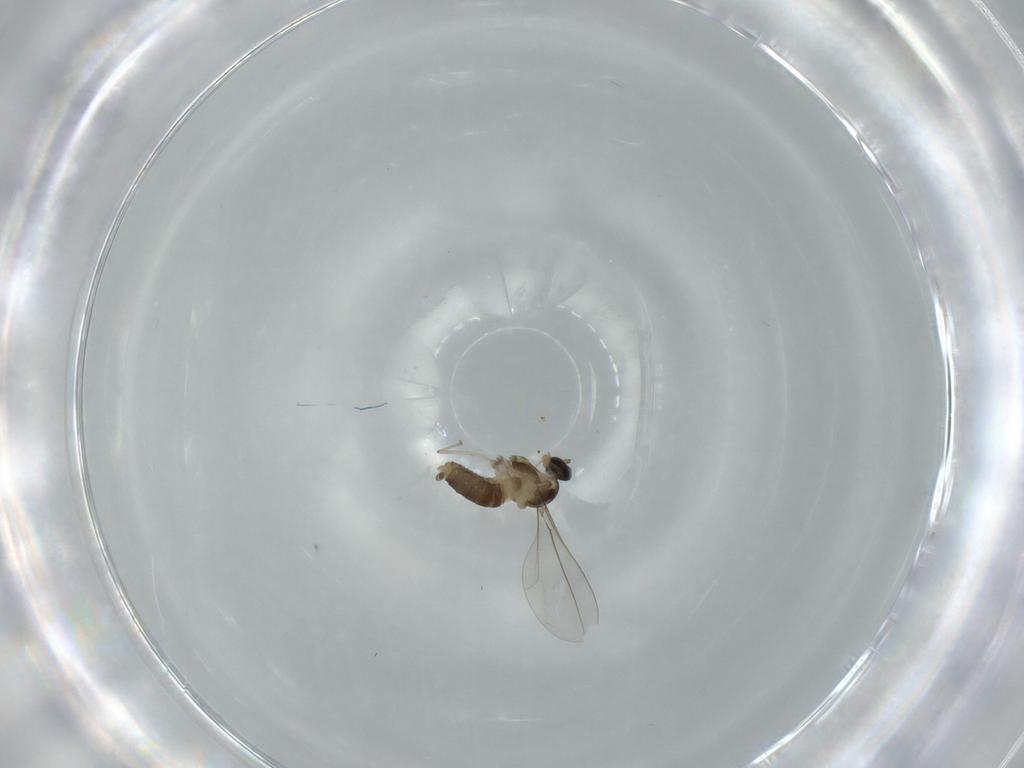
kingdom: Animalia
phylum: Arthropoda
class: Insecta
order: Diptera
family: Cecidomyiidae
